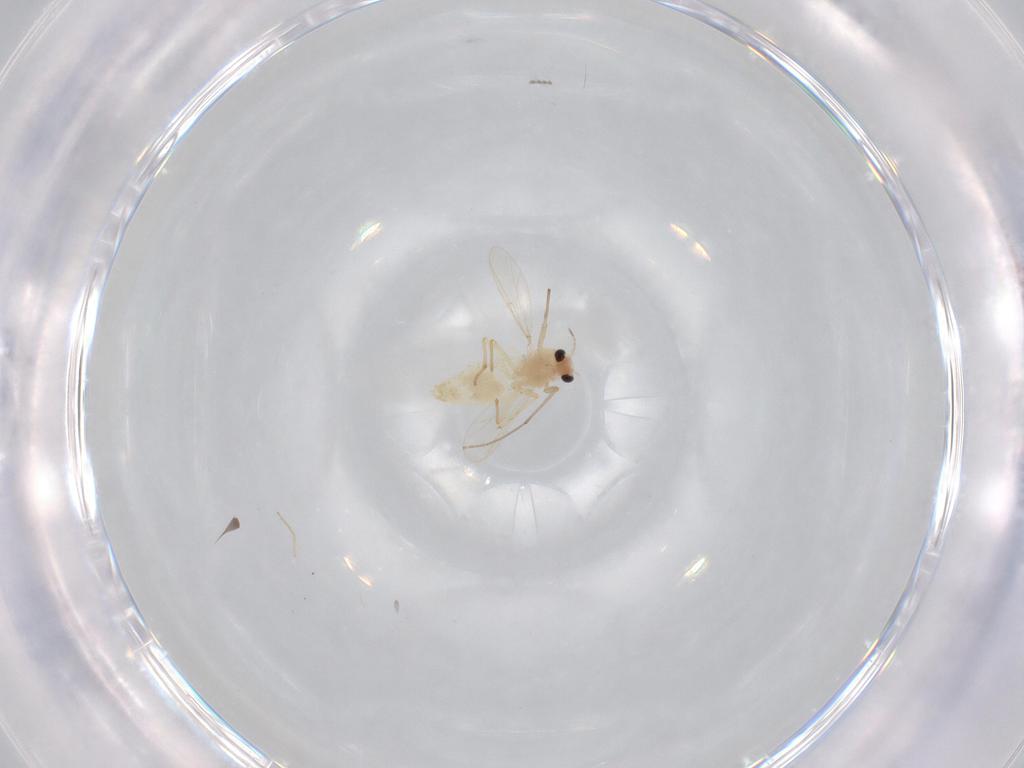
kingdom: Animalia
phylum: Arthropoda
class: Insecta
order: Diptera
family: Chironomidae
